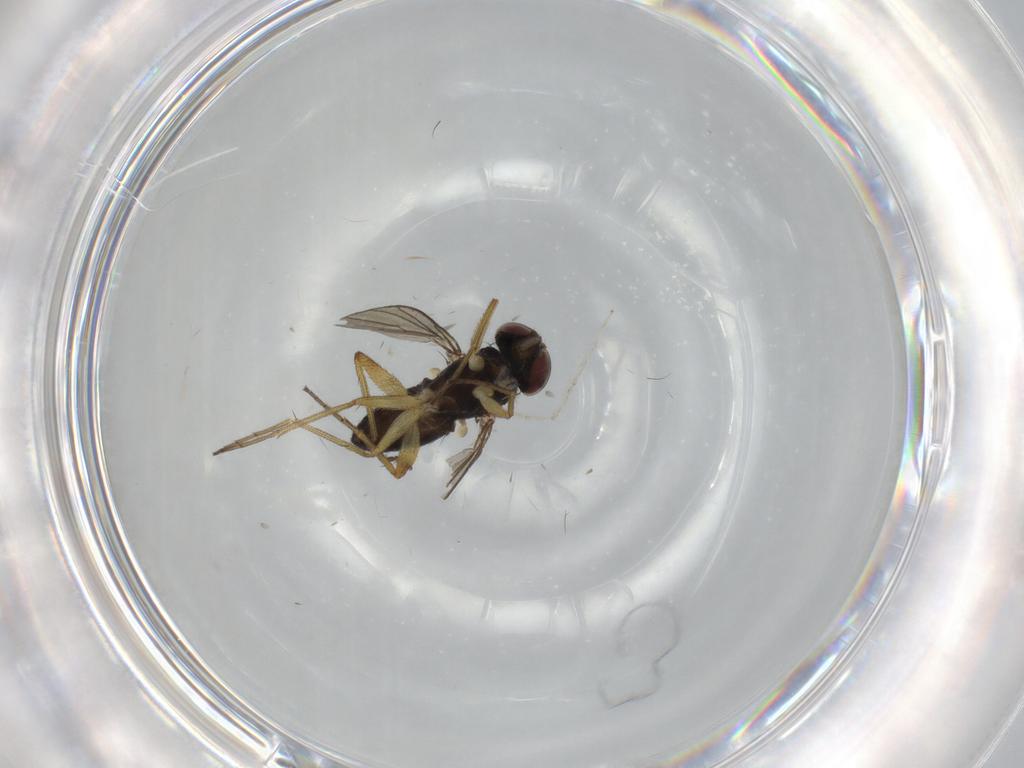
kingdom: Animalia
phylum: Arthropoda
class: Insecta
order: Diptera
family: Dolichopodidae
